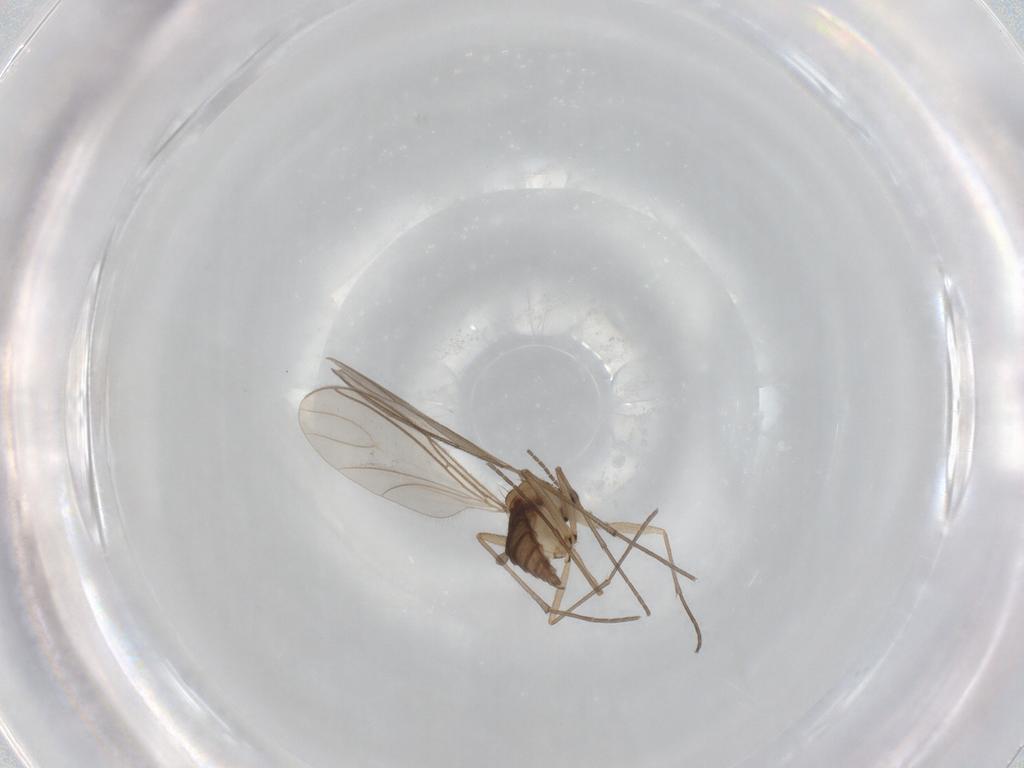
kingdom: Animalia
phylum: Arthropoda
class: Insecta
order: Diptera
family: Sciaridae
